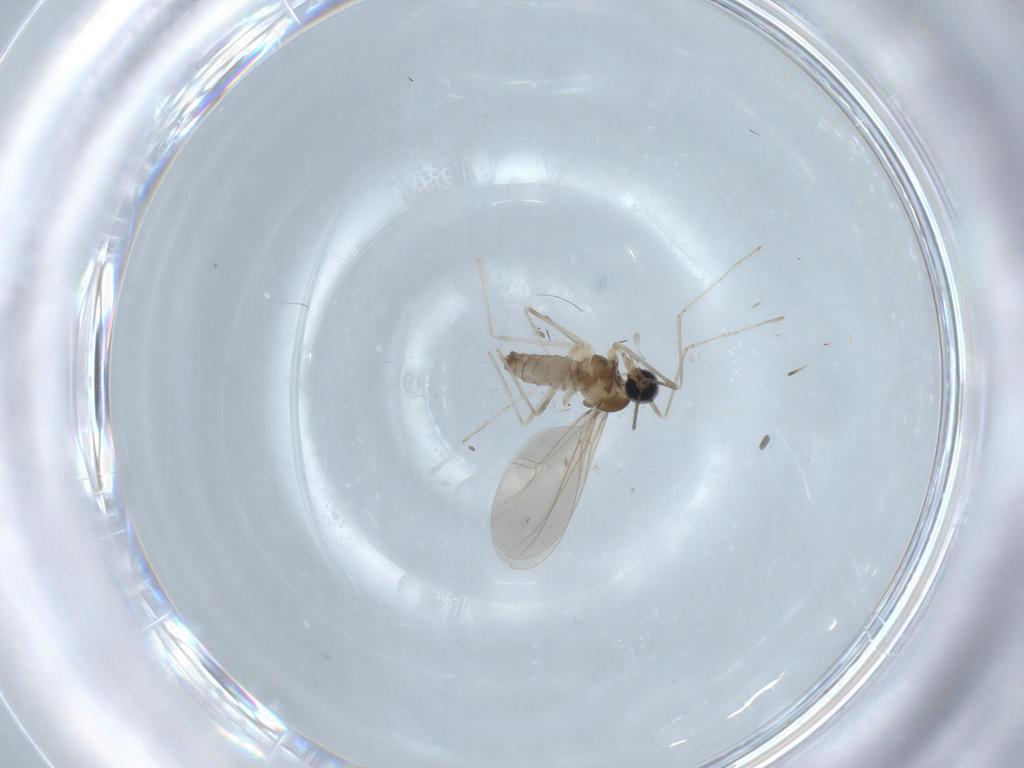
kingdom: Animalia
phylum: Arthropoda
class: Insecta
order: Diptera
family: Chironomidae
